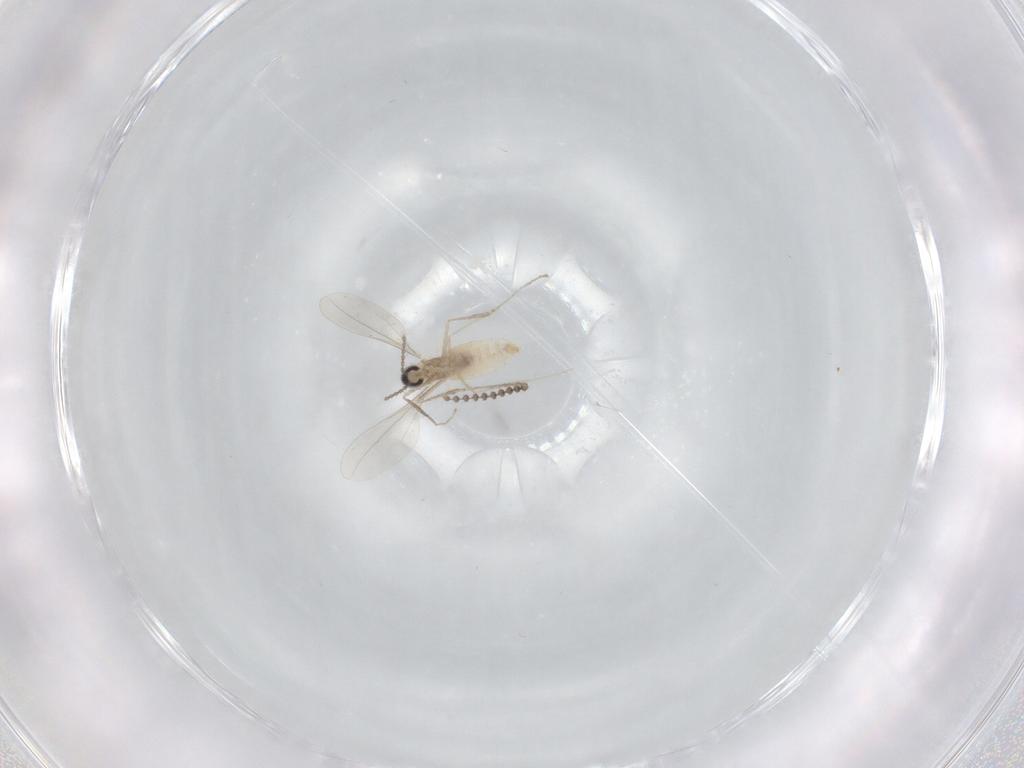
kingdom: Animalia
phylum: Arthropoda
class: Insecta
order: Diptera
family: Cecidomyiidae
